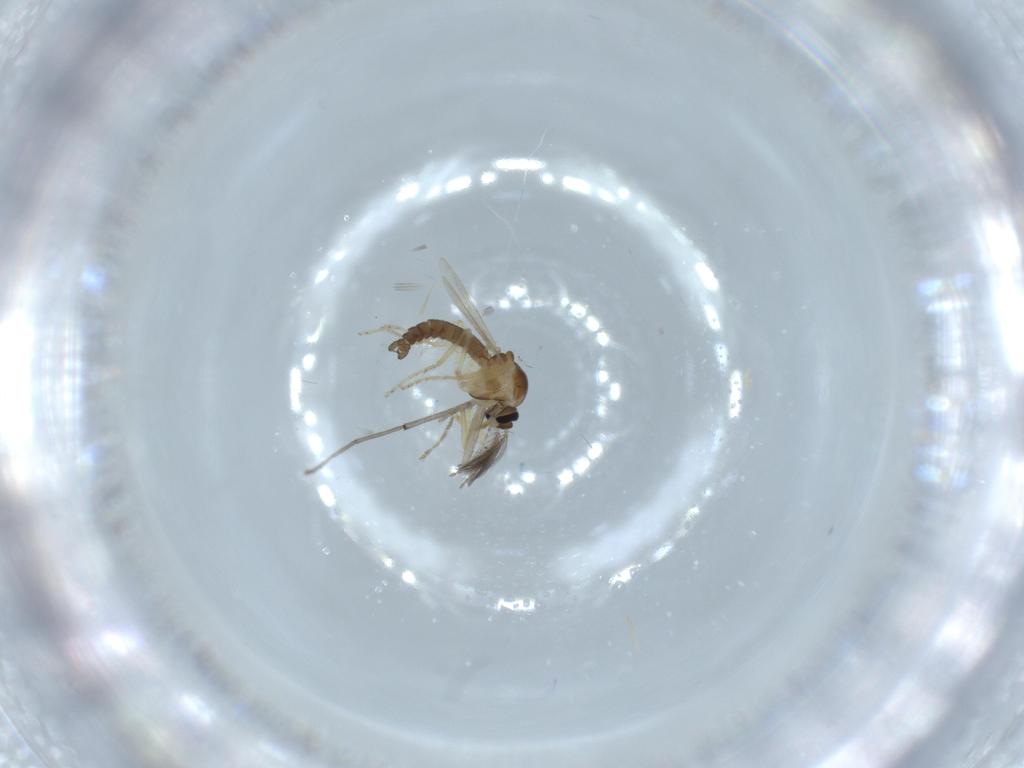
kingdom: Animalia
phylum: Arthropoda
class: Insecta
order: Diptera
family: Ceratopogonidae
